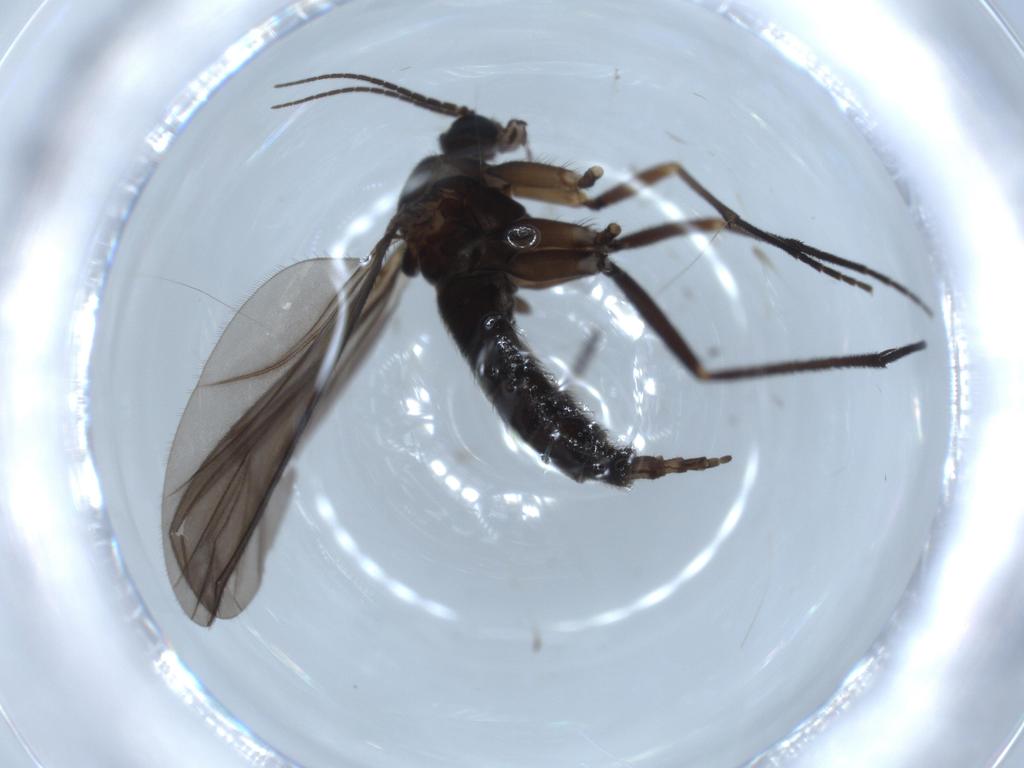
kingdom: Animalia
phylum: Arthropoda
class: Insecta
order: Diptera
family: Sciaridae
